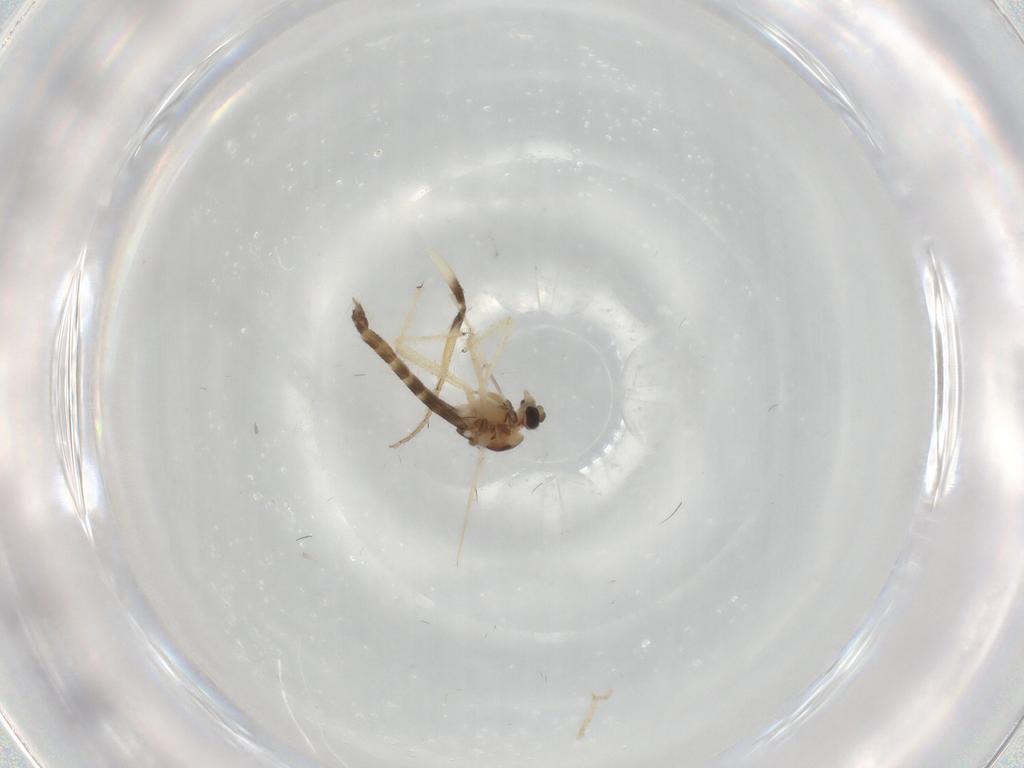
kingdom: Animalia
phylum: Arthropoda
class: Insecta
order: Diptera
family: Chironomidae
